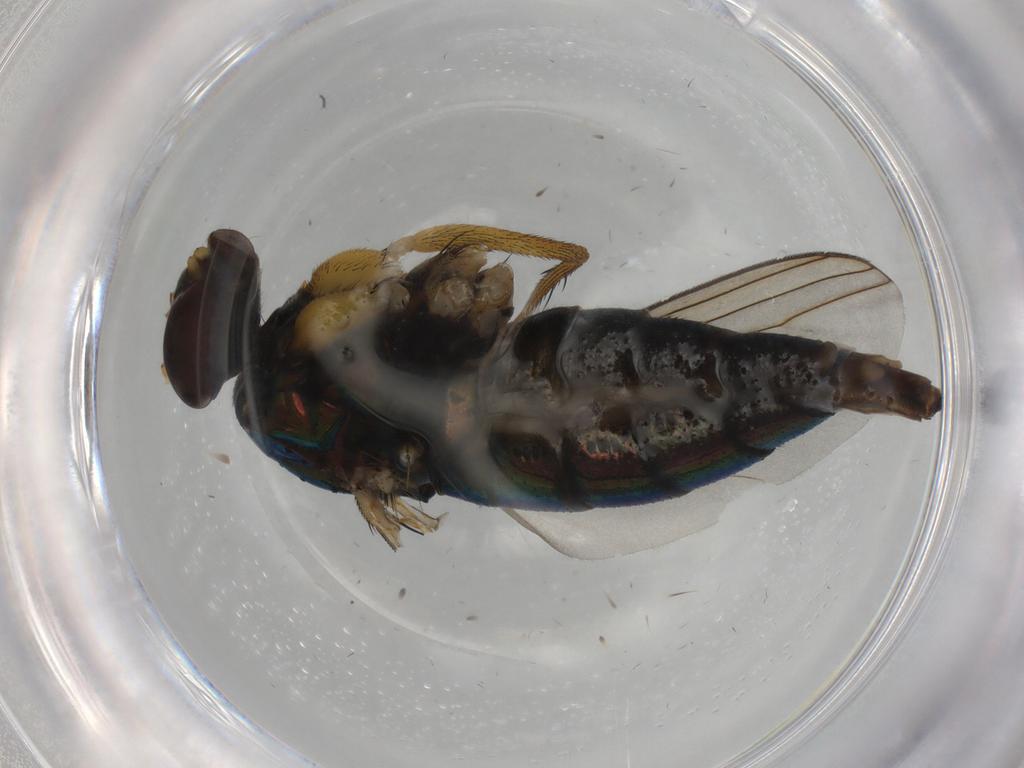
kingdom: Animalia
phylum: Arthropoda
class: Insecta
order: Diptera
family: Dolichopodidae
